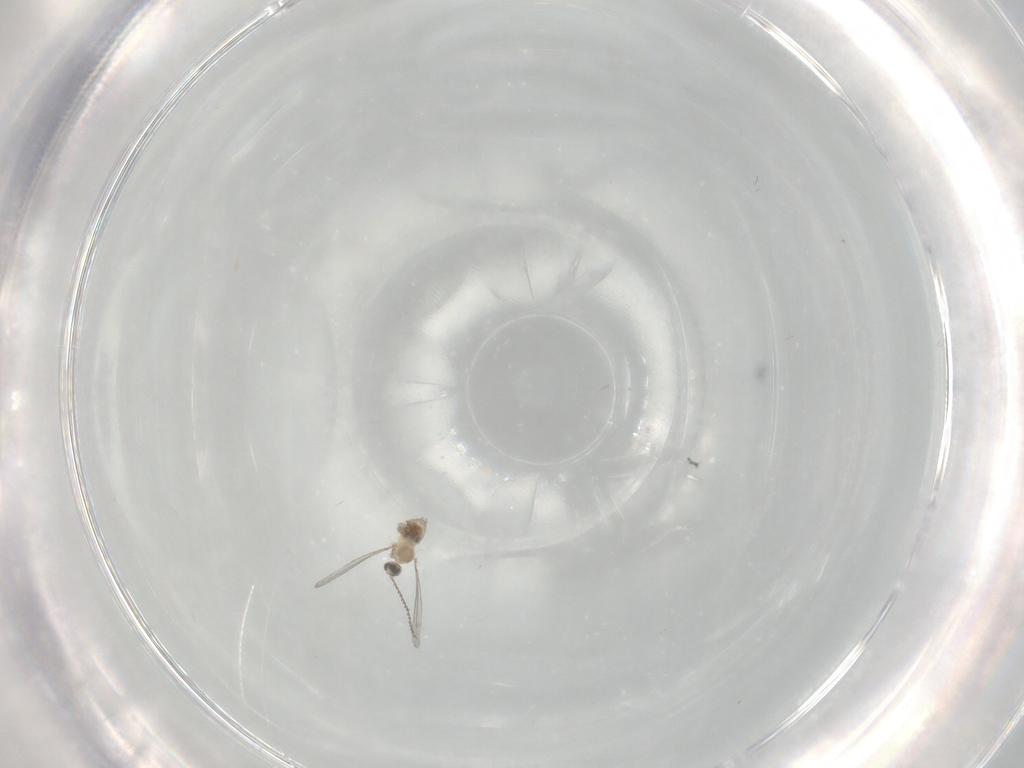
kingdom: Animalia
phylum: Arthropoda
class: Insecta
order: Diptera
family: Cecidomyiidae
